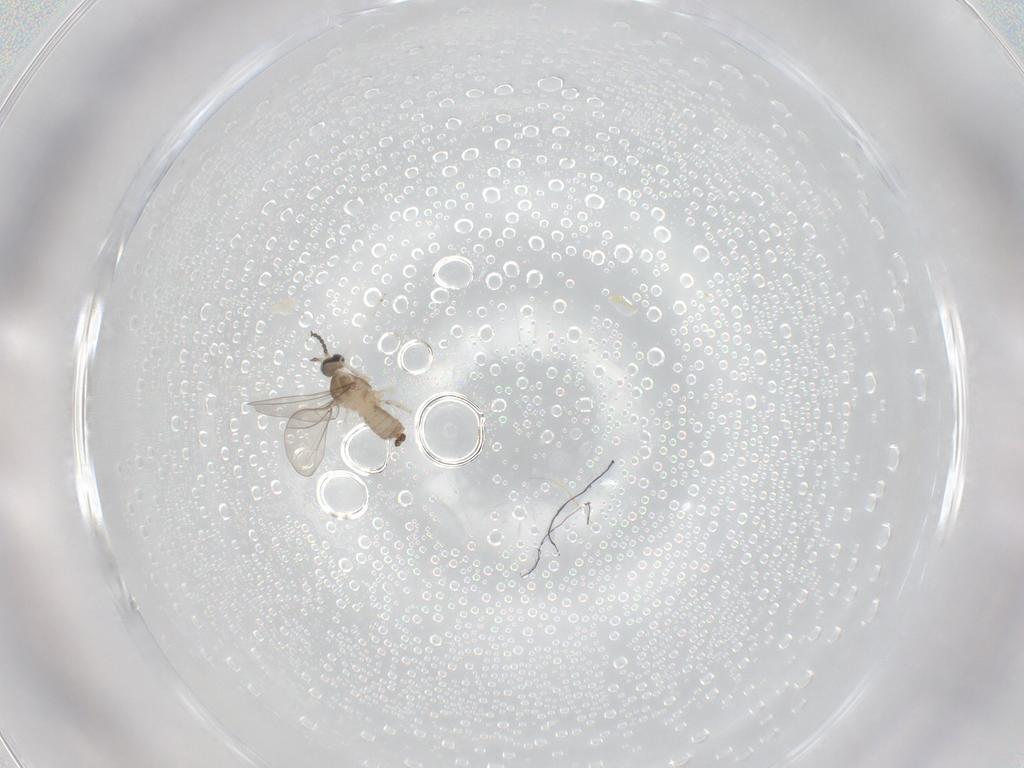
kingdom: Animalia
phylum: Arthropoda
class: Insecta
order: Diptera
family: Cecidomyiidae
